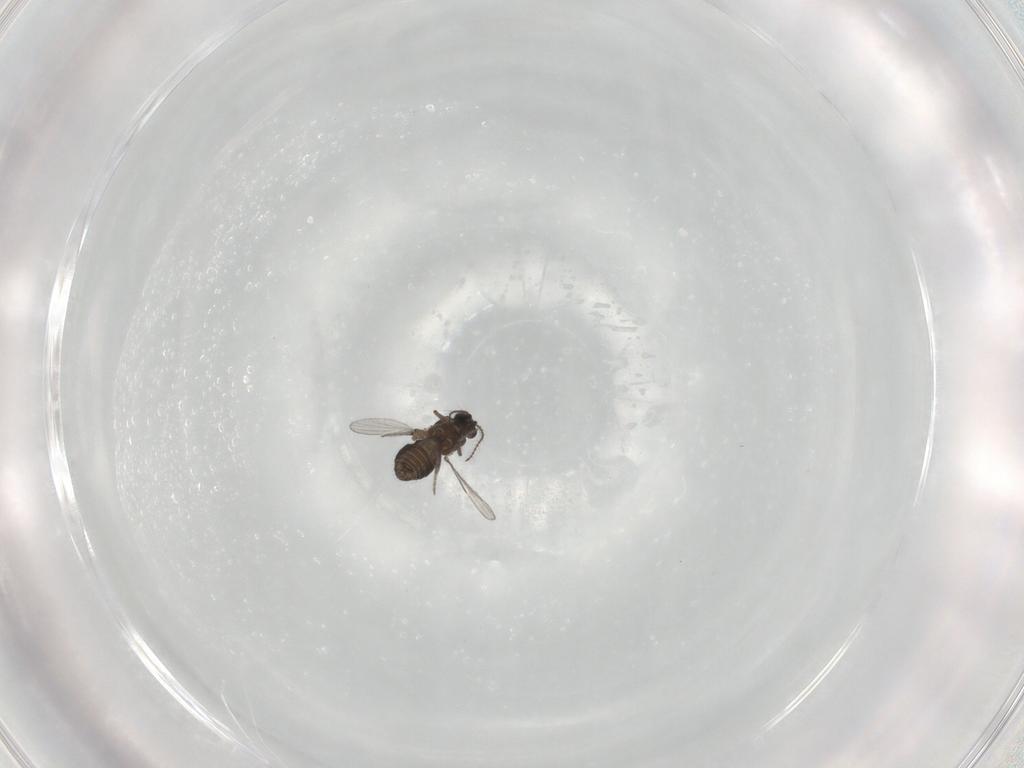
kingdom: Animalia
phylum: Arthropoda
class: Insecta
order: Diptera
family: Ceratopogonidae
